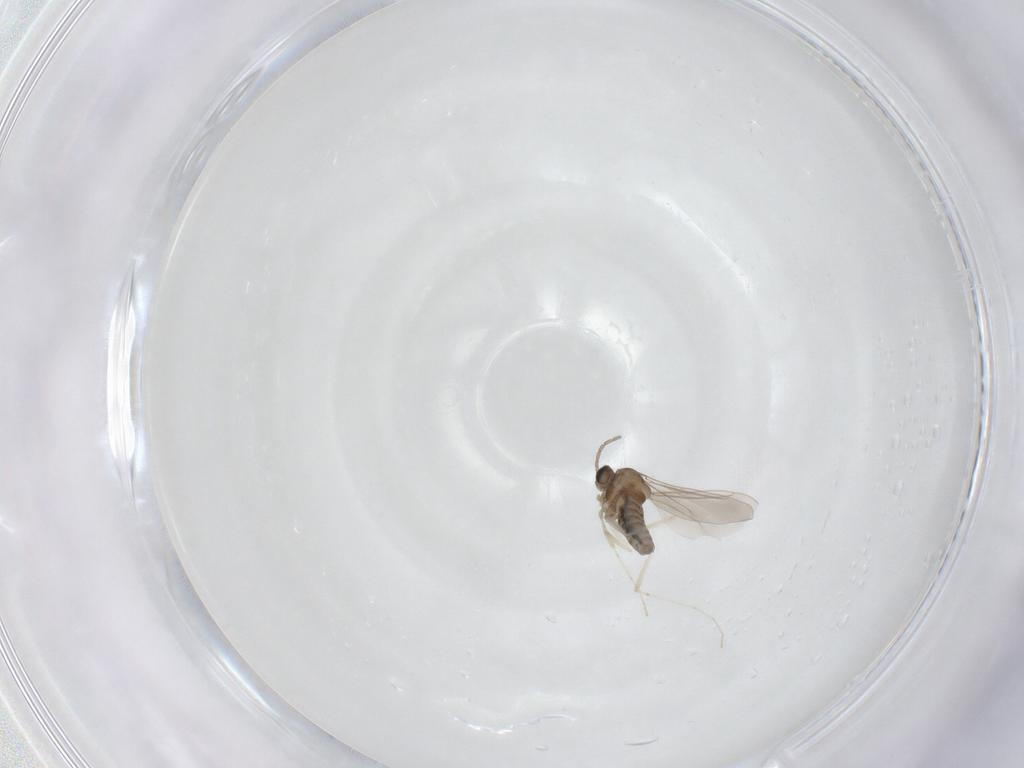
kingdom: Animalia
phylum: Arthropoda
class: Insecta
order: Diptera
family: Cecidomyiidae
